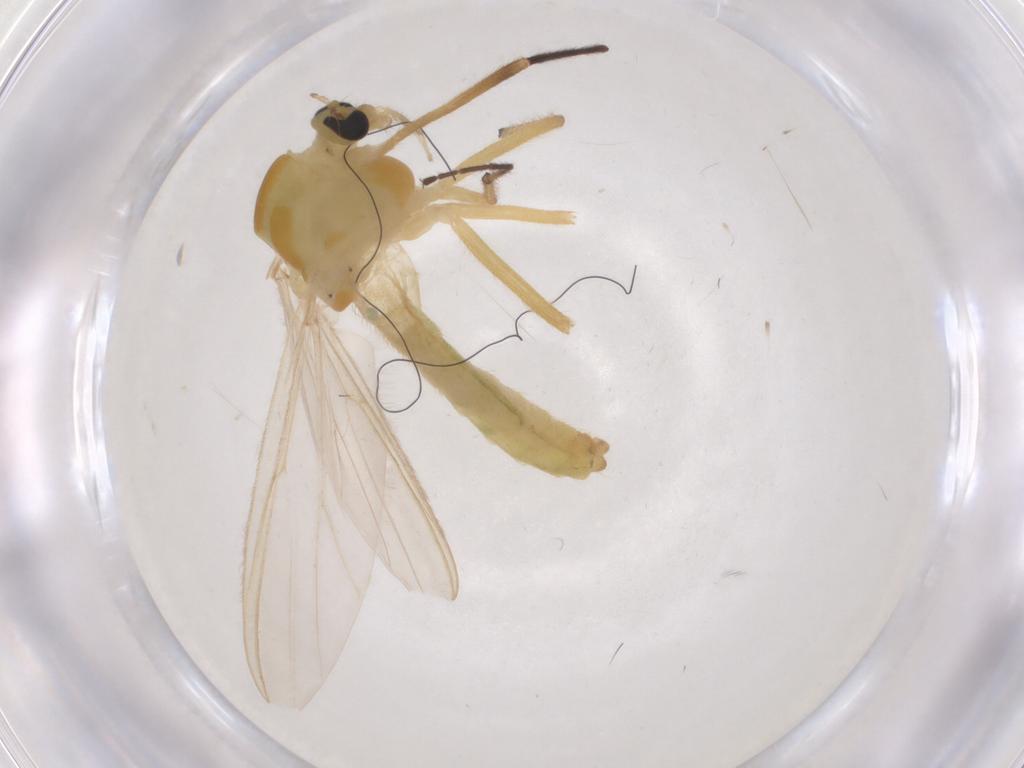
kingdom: Animalia
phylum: Arthropoda
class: Insecta
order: Diptera
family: Chironomidae
